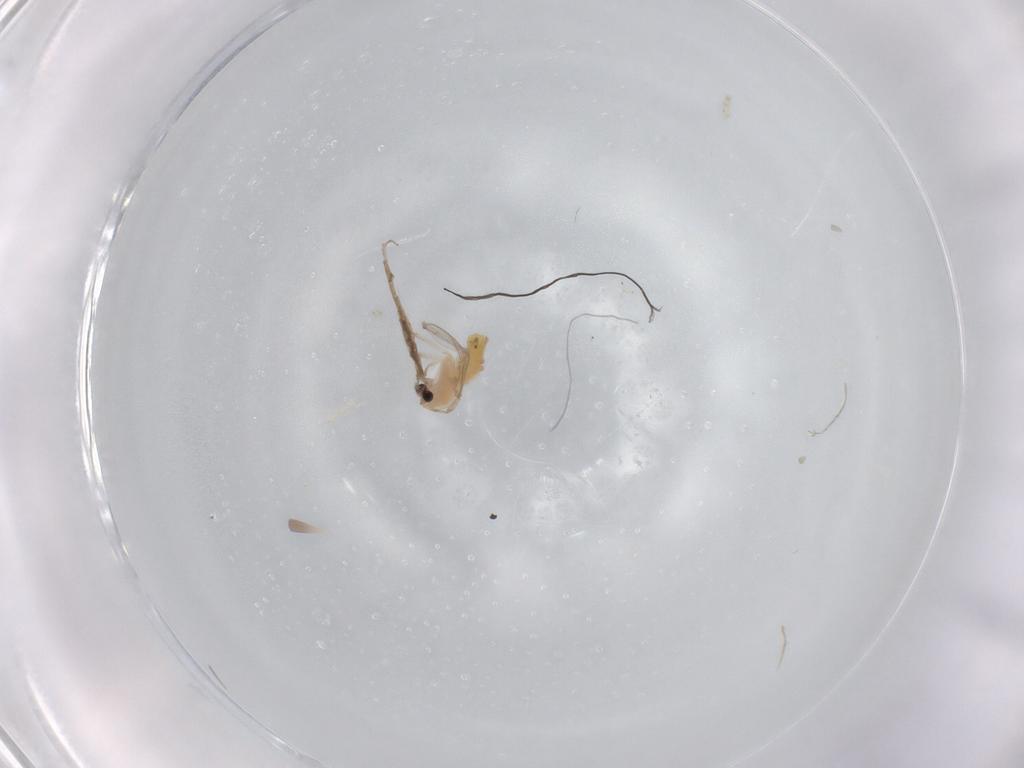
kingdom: Animalia
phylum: Arthropoda
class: Insecta
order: Diptera
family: Chironomidae
